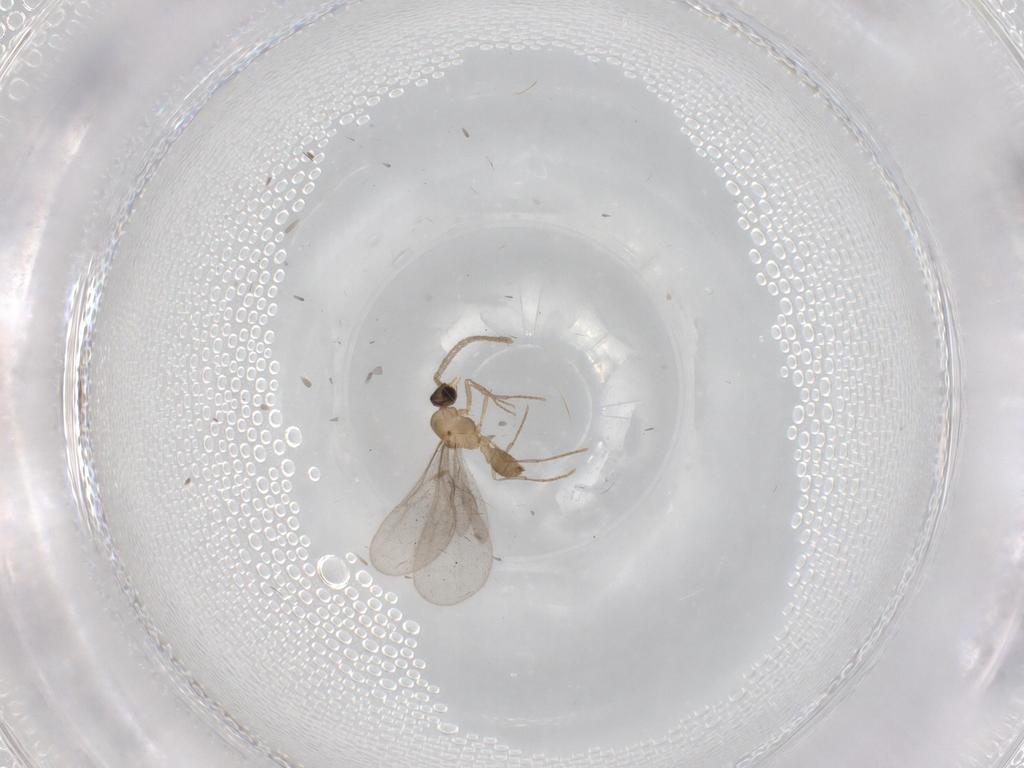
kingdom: Animalia
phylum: Arthropoda
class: Insecta
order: Hymenoptera
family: Formicidae
